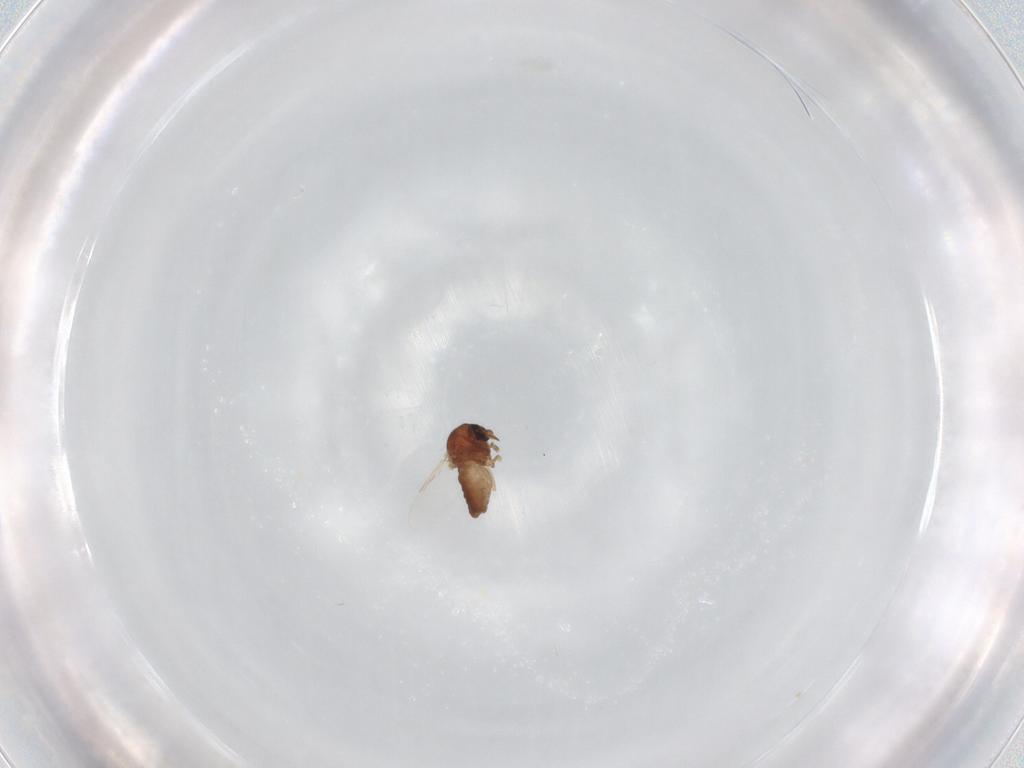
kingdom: Animalia
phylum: Arthropoda
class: Insecta
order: Diptera
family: Ceratopogonidae
